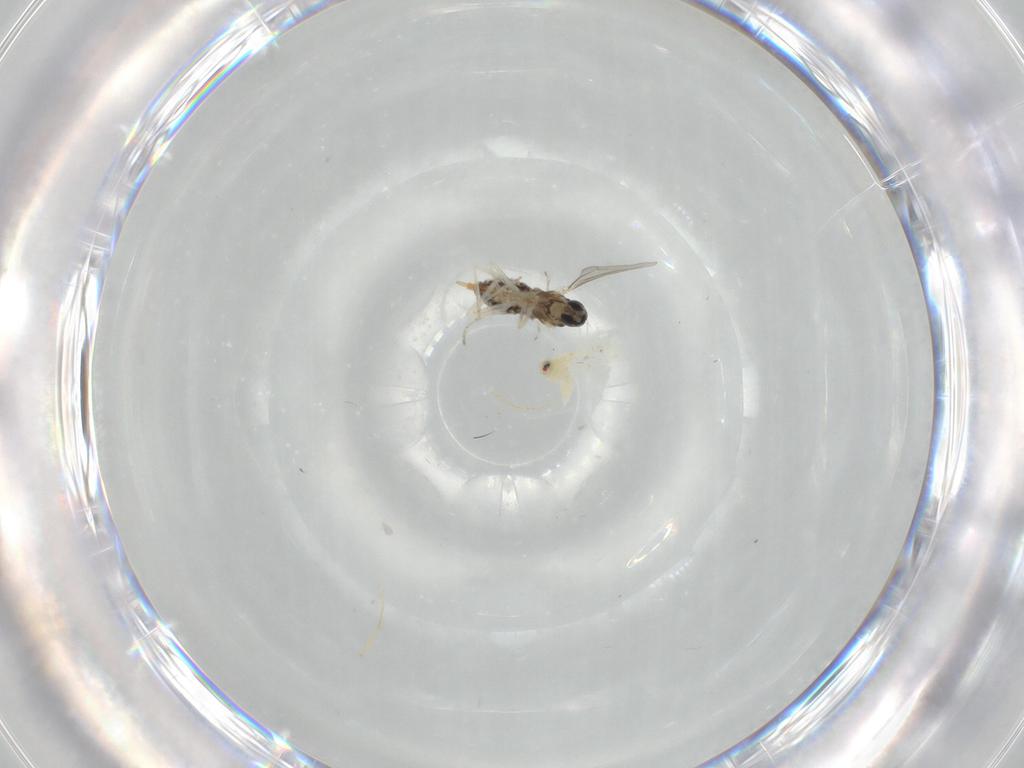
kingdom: Animalia
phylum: Arthropoda
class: Insecta
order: Diptera
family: Cecidomyiidae
